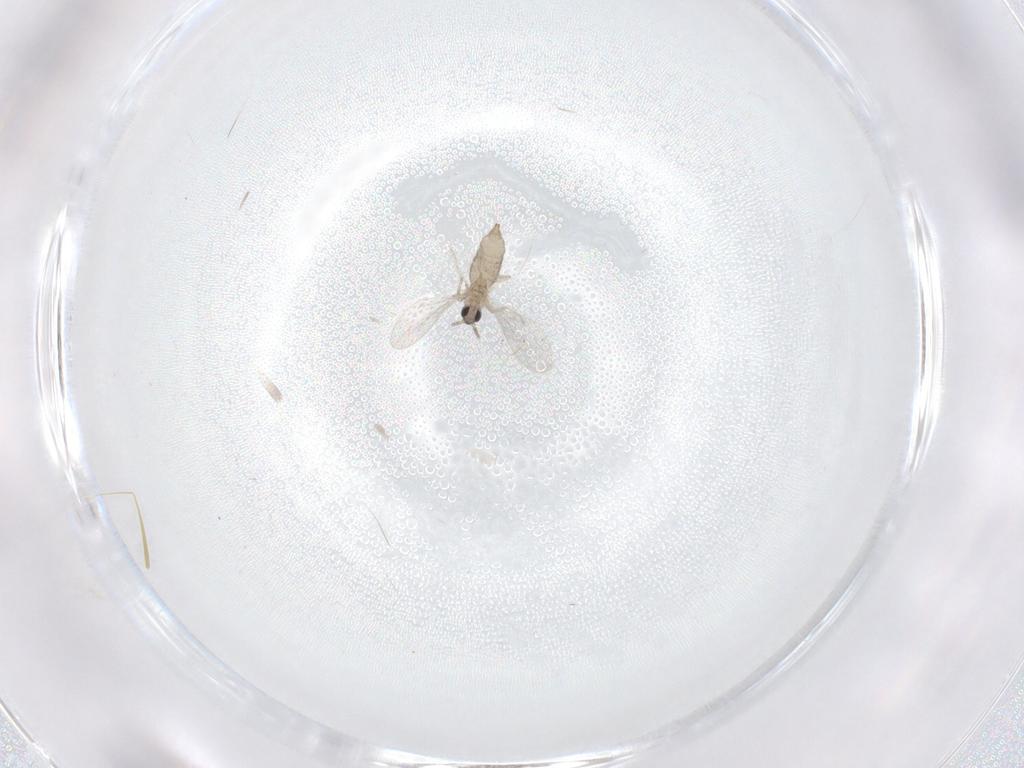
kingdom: Animalia
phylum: Arthropoda
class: Insecta
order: Diptera
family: Cecidomyiidae
